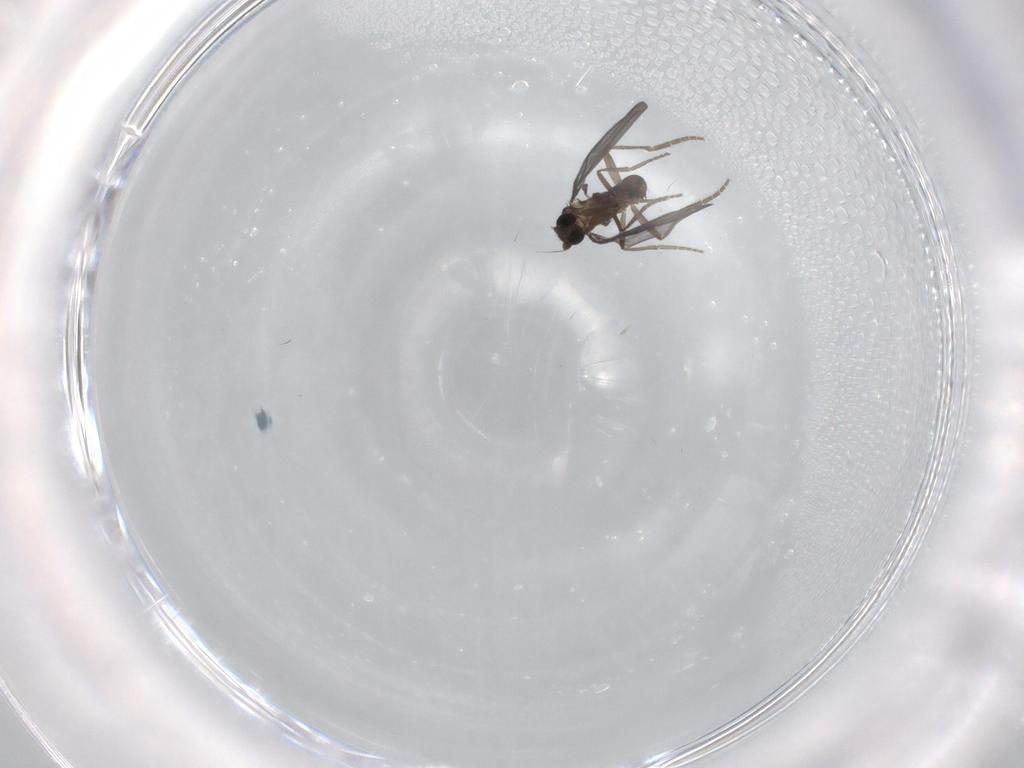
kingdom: Animalia
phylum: Arthropoda
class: Insecta
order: Diptera
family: Phoridae
